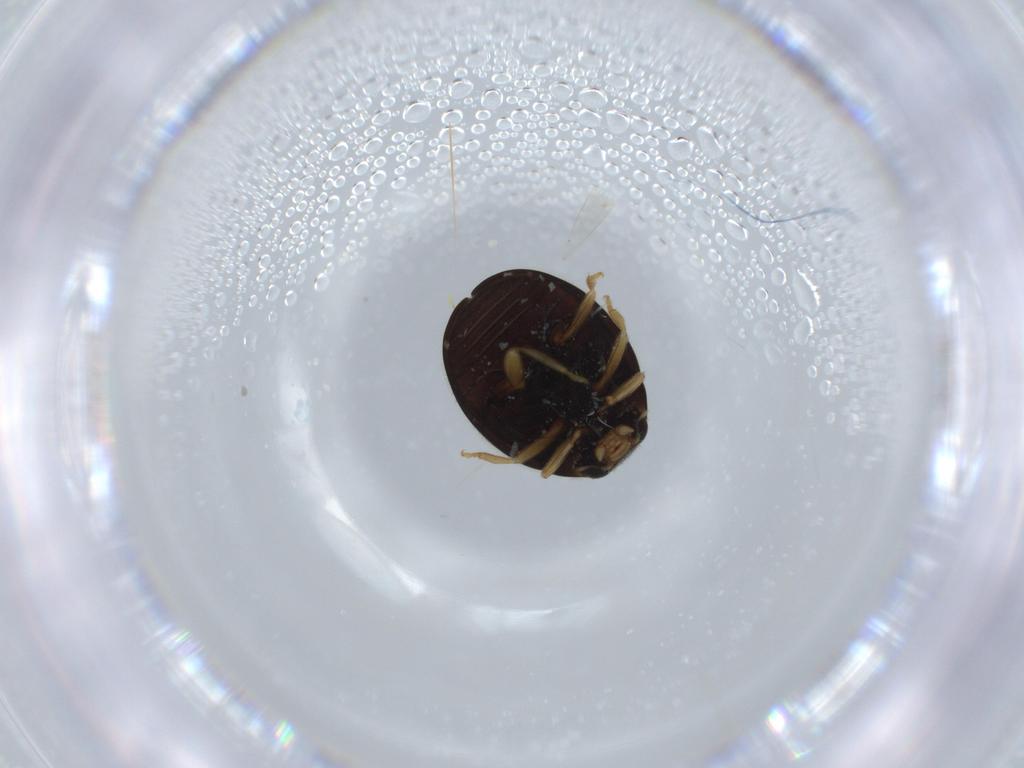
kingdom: Animalia
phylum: Arthropoda
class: Insecta
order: Coleoptera
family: Coccinellidae
